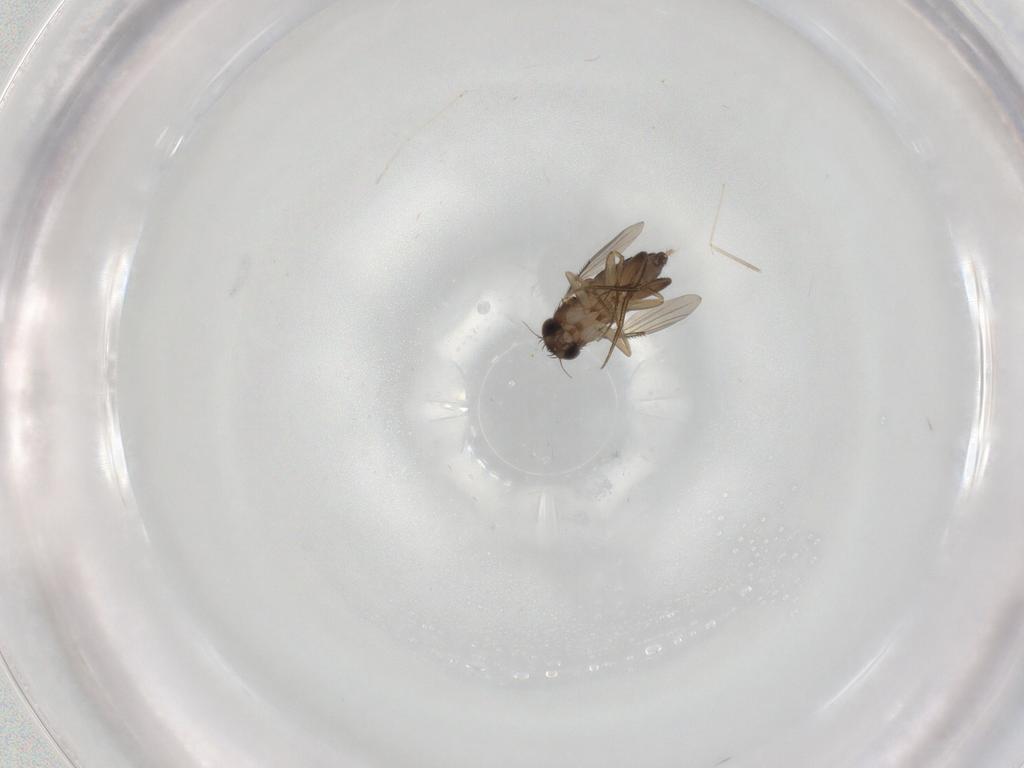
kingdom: Animalia
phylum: Arthropoda
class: Insecta
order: Diptera
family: Phoridae
